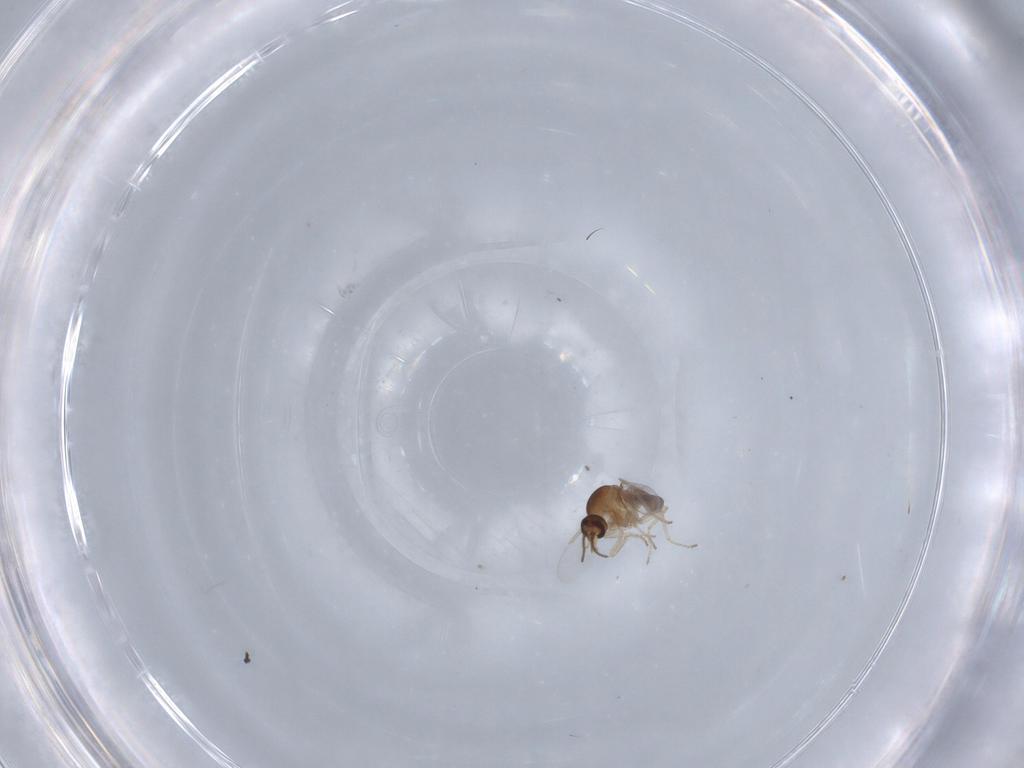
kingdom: Animalia
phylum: Arthropoda
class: Insecta
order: Diptera
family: Ceratopogonidae
